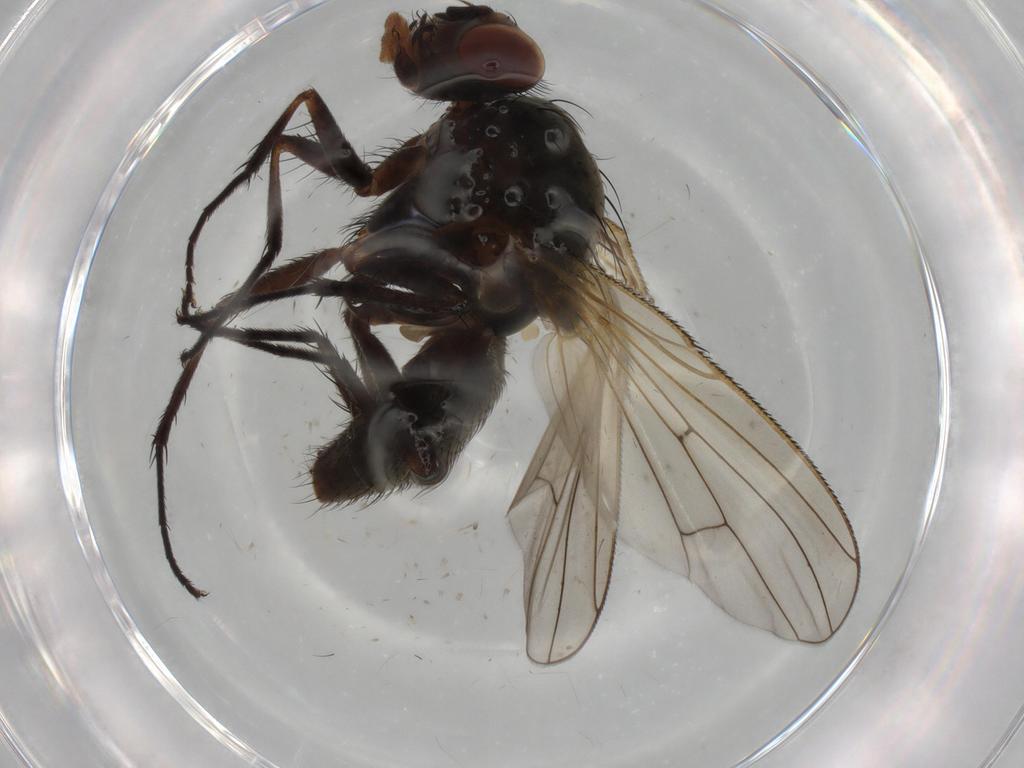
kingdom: Animalia
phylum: Arthropoda
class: Insecta
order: Diptera
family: Anthomyiidae
